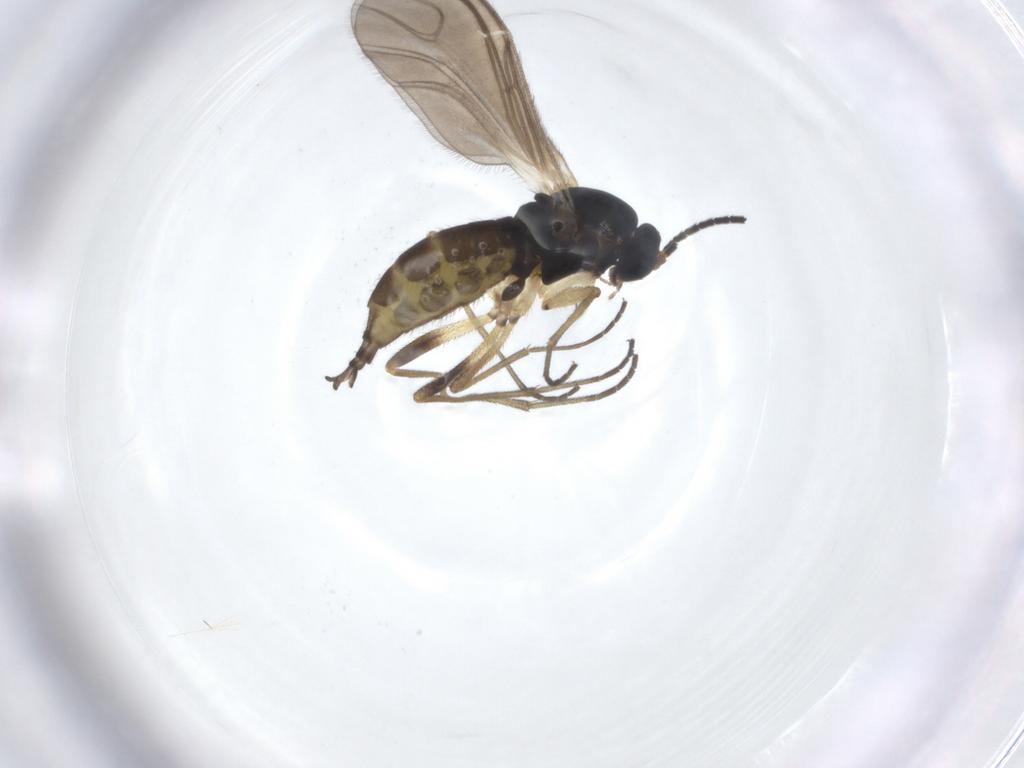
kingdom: Animalia
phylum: Arthropoda
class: Insecta
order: Diptera
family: Sciaridae
